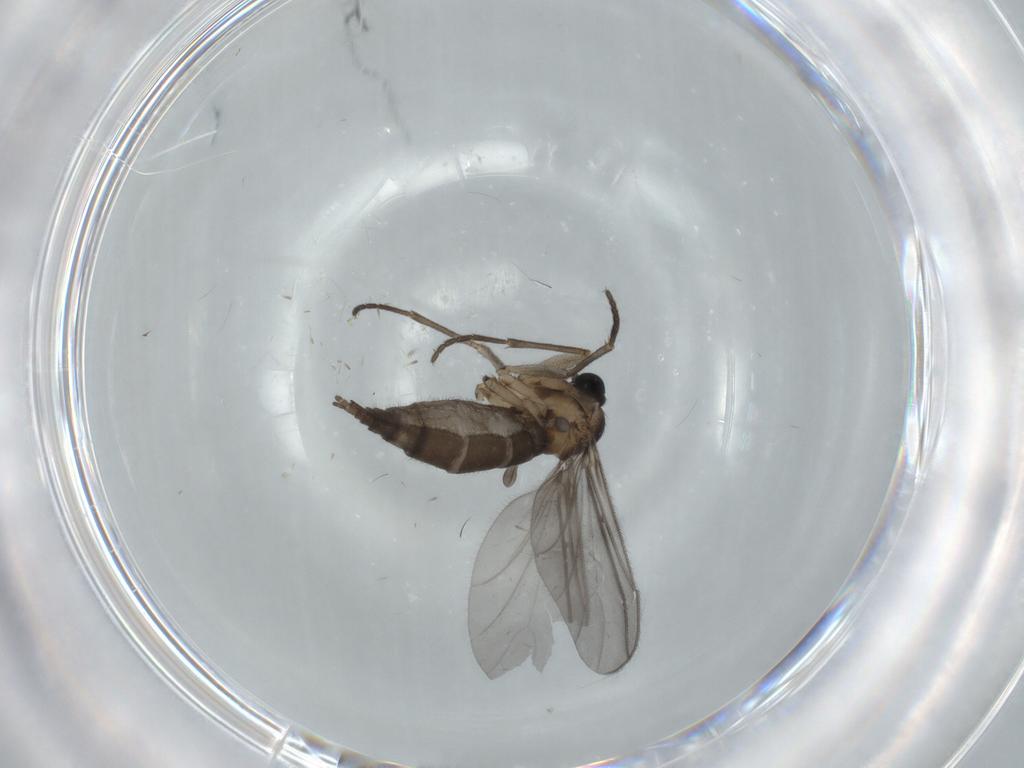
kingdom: Animalia
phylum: Arthropoda
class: Insecta
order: Diptera
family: Sciaridae
